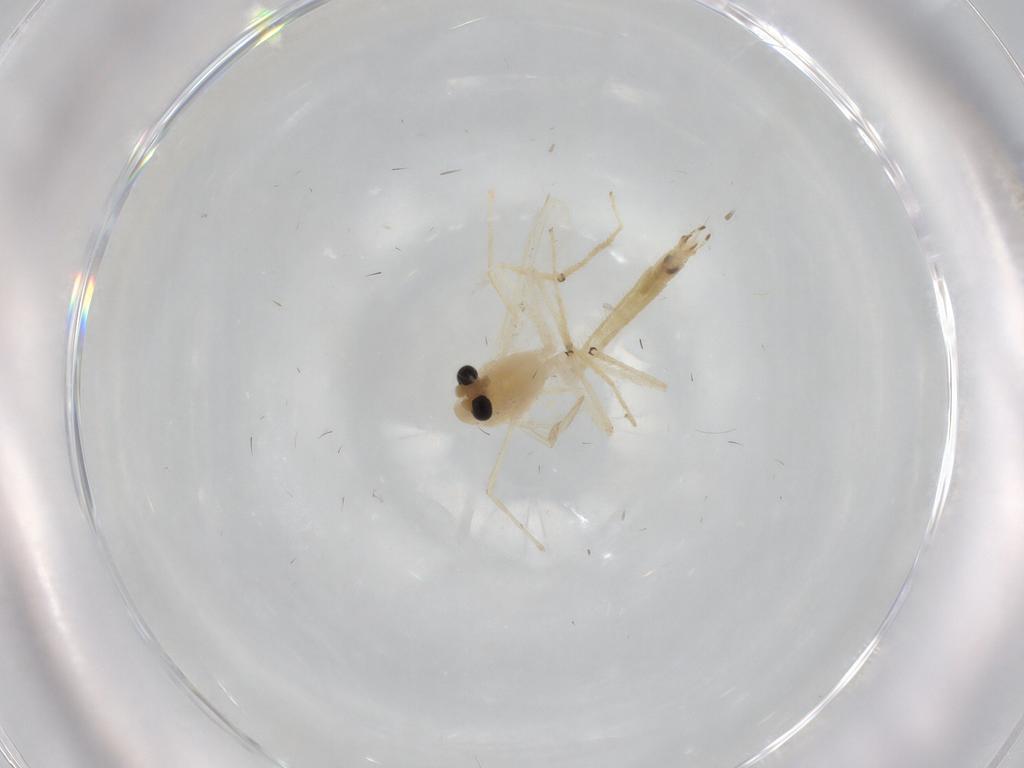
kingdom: Animalia
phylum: Arthropoda
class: Insecta
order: Diptera
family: Chironomidae
